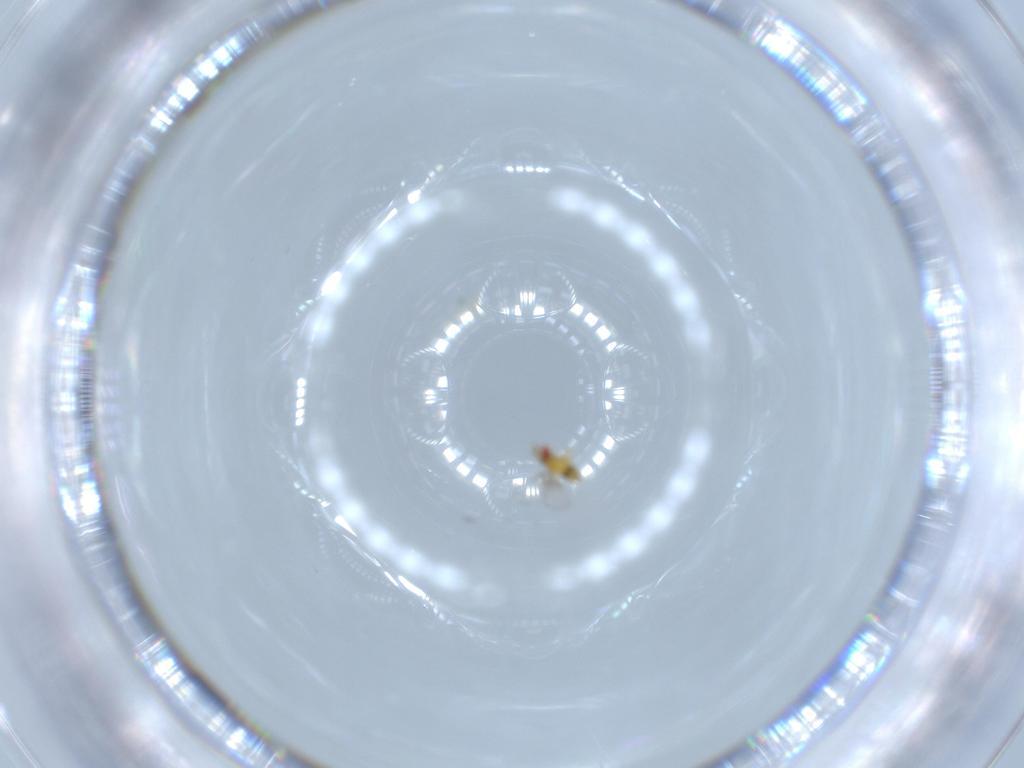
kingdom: Animalia
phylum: Arthropoda
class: Insecta
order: Hymenoptera
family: Trichogrammatidae
